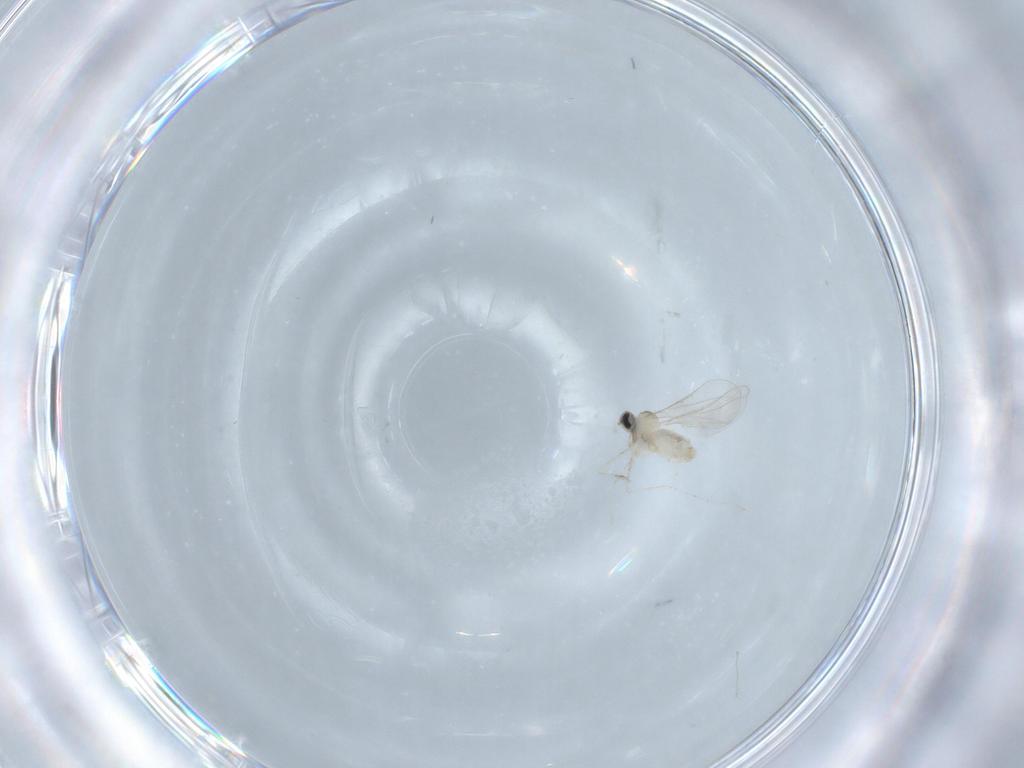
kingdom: Animalia
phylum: Arthropoda
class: Insecta
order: Diptera
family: Cecidomyiidae
